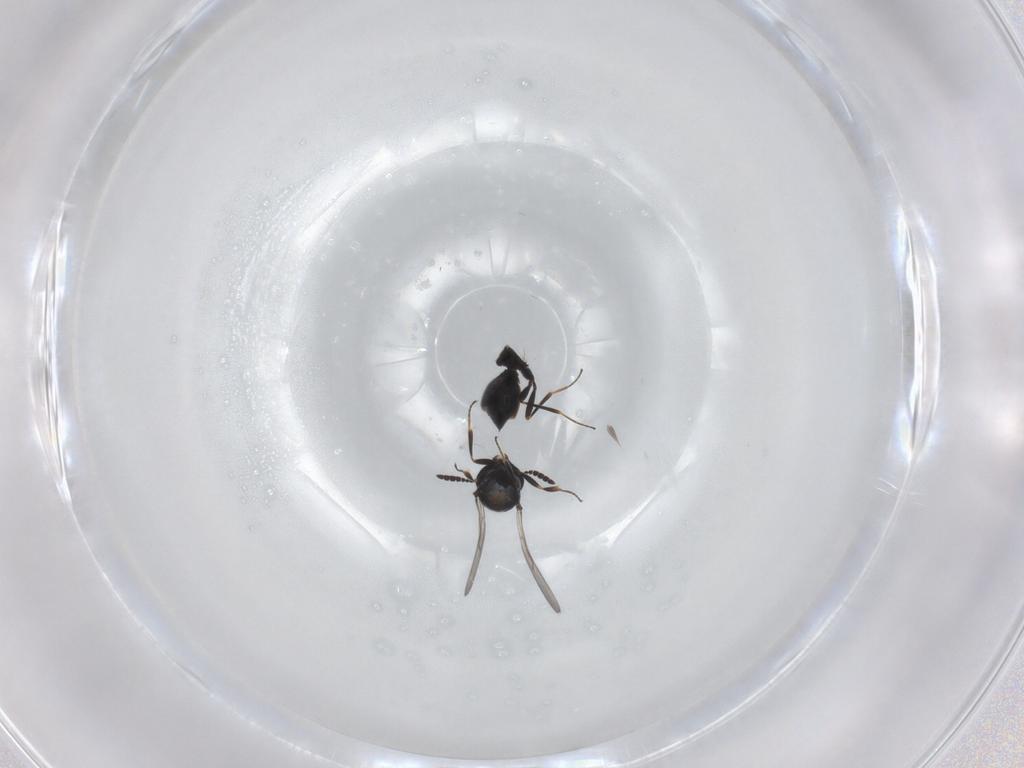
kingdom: Animalia
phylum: Arthropoda
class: Insecta
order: Hymenoptera
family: Scelionidae
